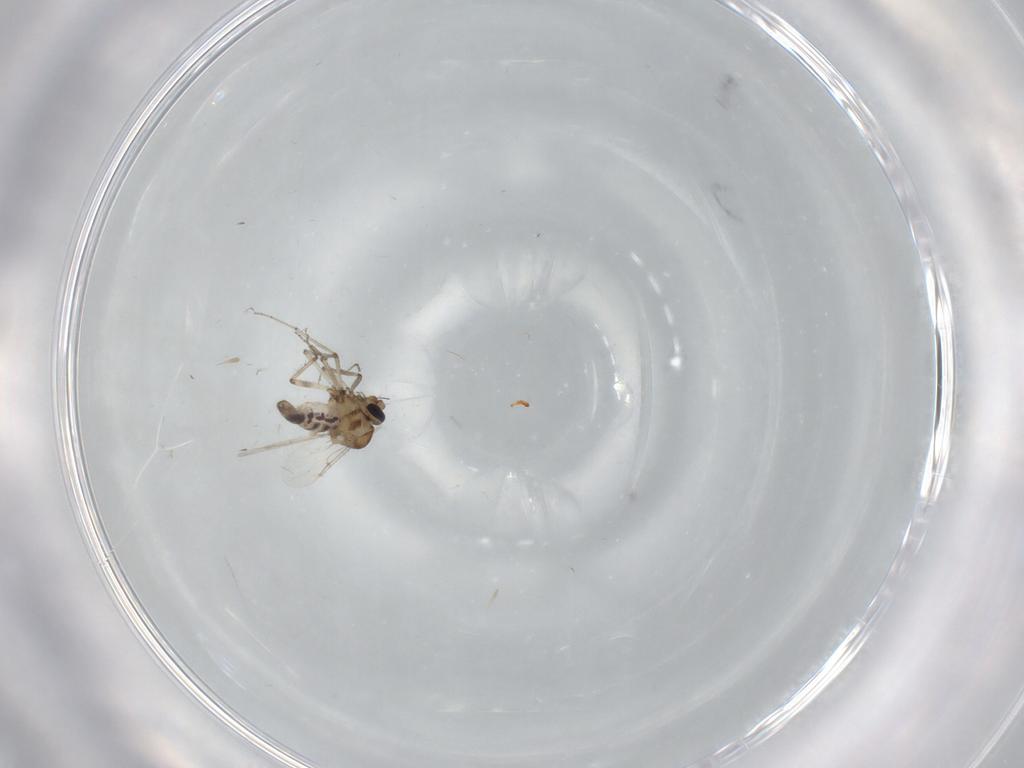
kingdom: Animalia
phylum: Arthropoda
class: Insecta
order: Diptera
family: Ceratopogonidae
